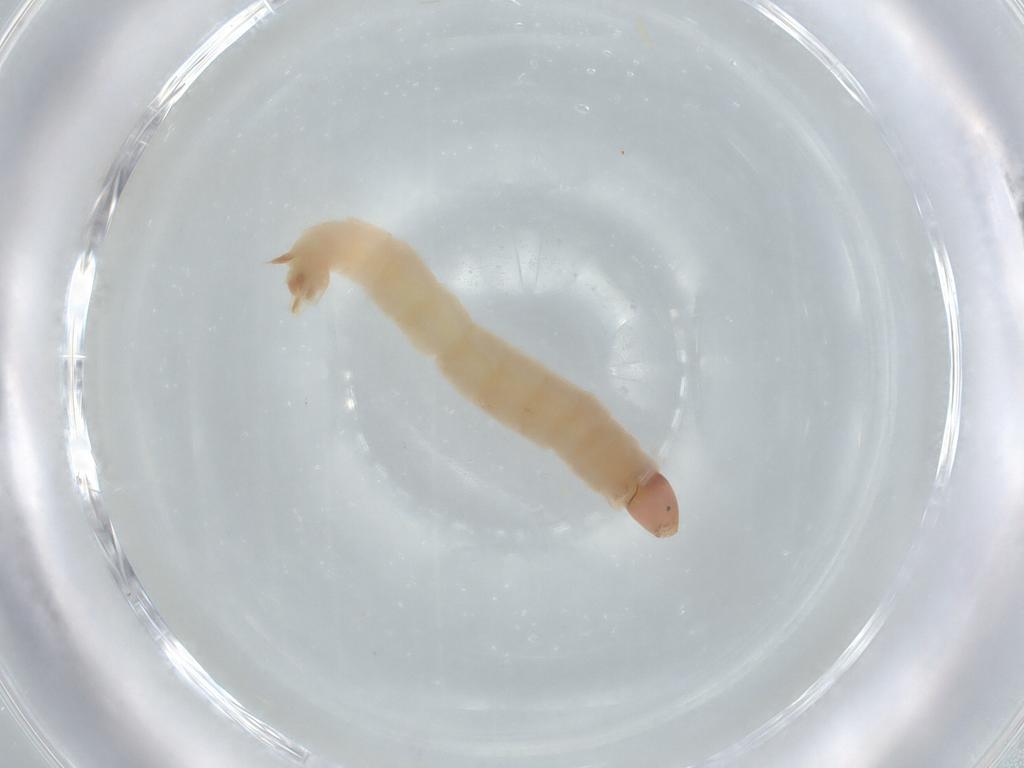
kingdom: Animalia
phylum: Arthropoda
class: Insecta
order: Diptera
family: Chironomidae
